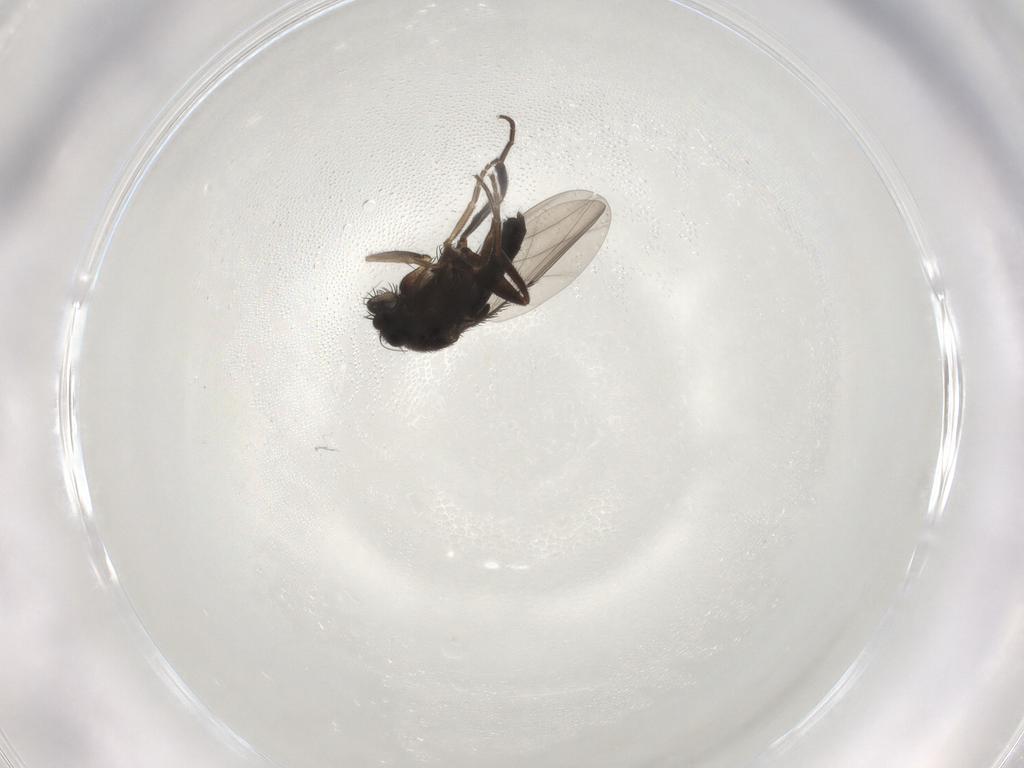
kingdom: Animalia
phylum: Arthropoda
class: Insecta
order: Diptera
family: Phoridae
